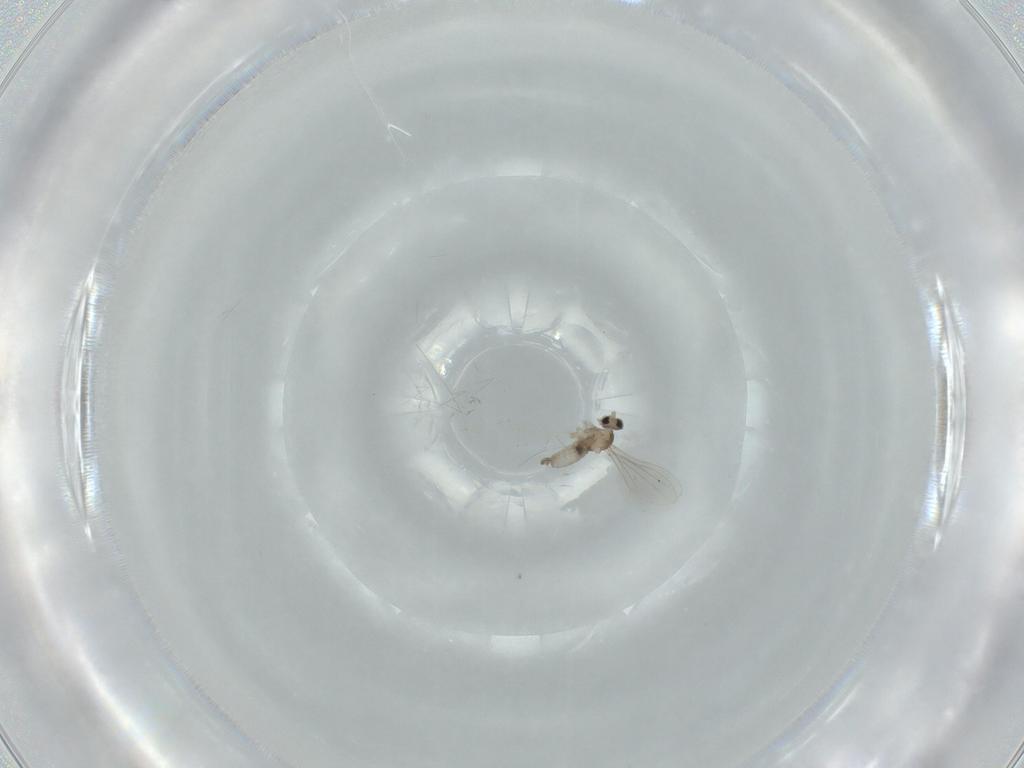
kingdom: Animalia
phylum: Arthropoda
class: Insecta
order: Diptera
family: Cecidomyiidae
